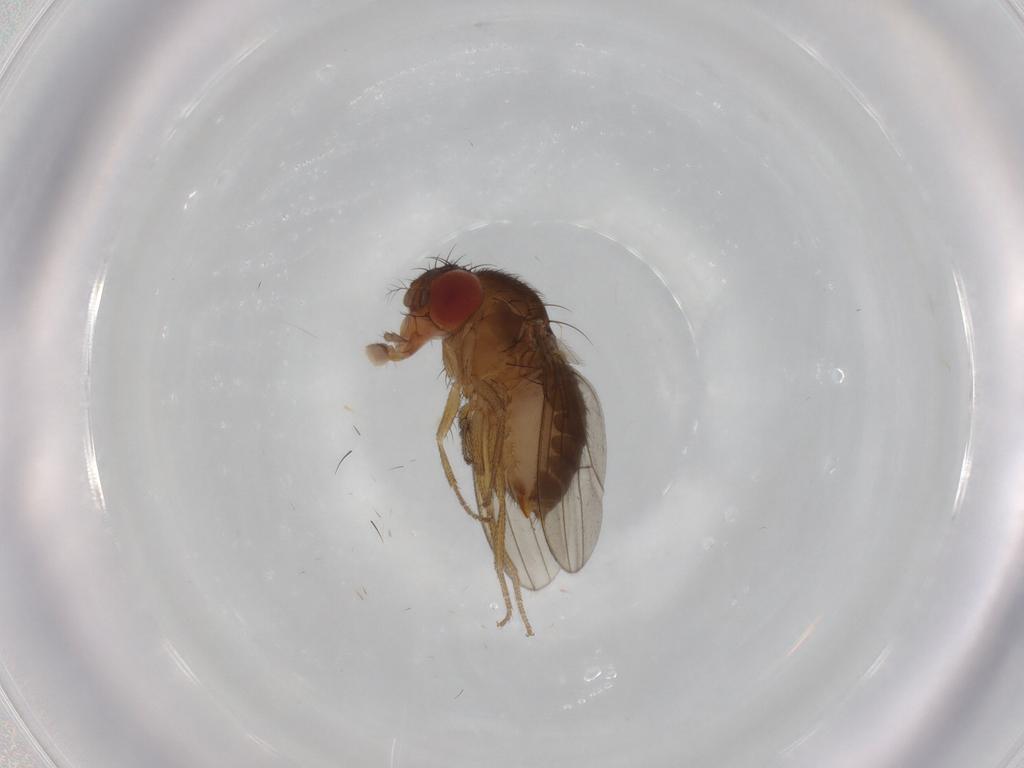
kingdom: Animalia
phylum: Arthropoda
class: Insecta
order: Diptera
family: Drosophilidae
